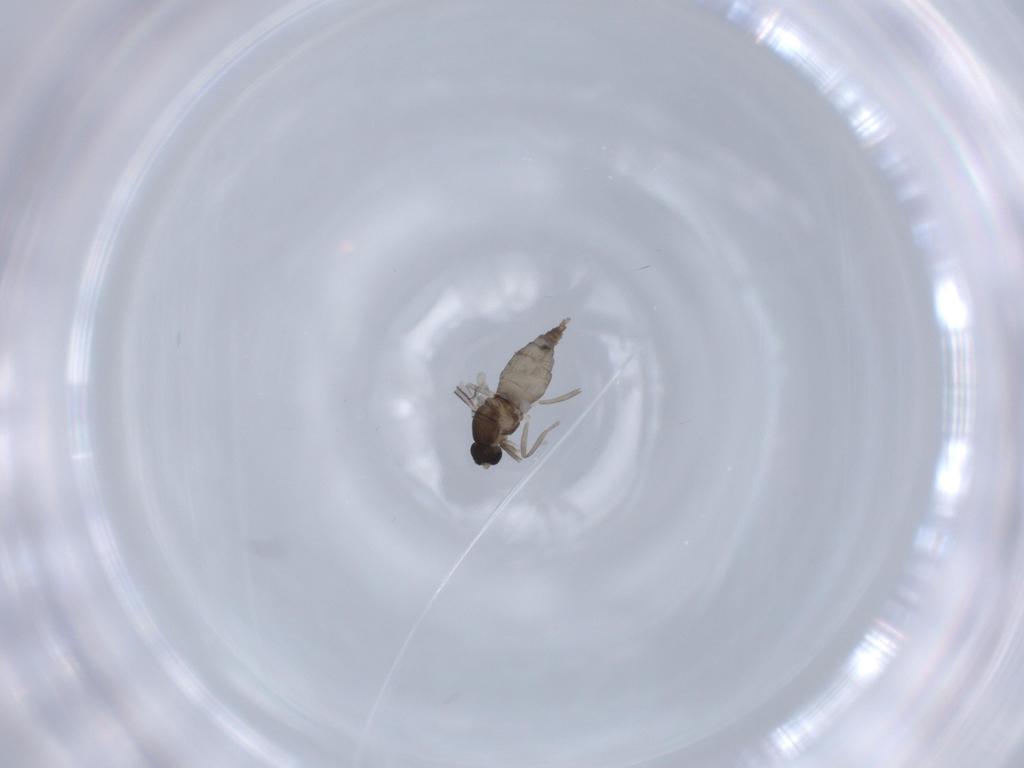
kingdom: Animalia
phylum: Arthropoda
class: Insecta
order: Diptera
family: Cecidomyiidae
